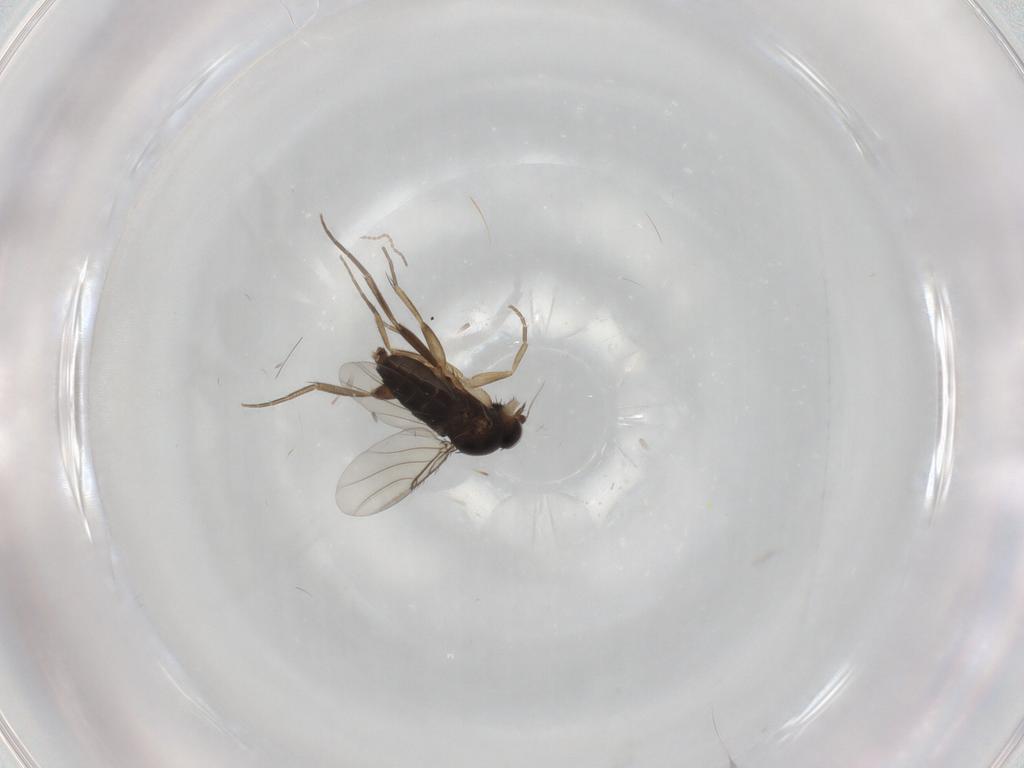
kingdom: Animalia
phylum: Arthropoda
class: Insecta
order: Diptera
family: Phoridae
